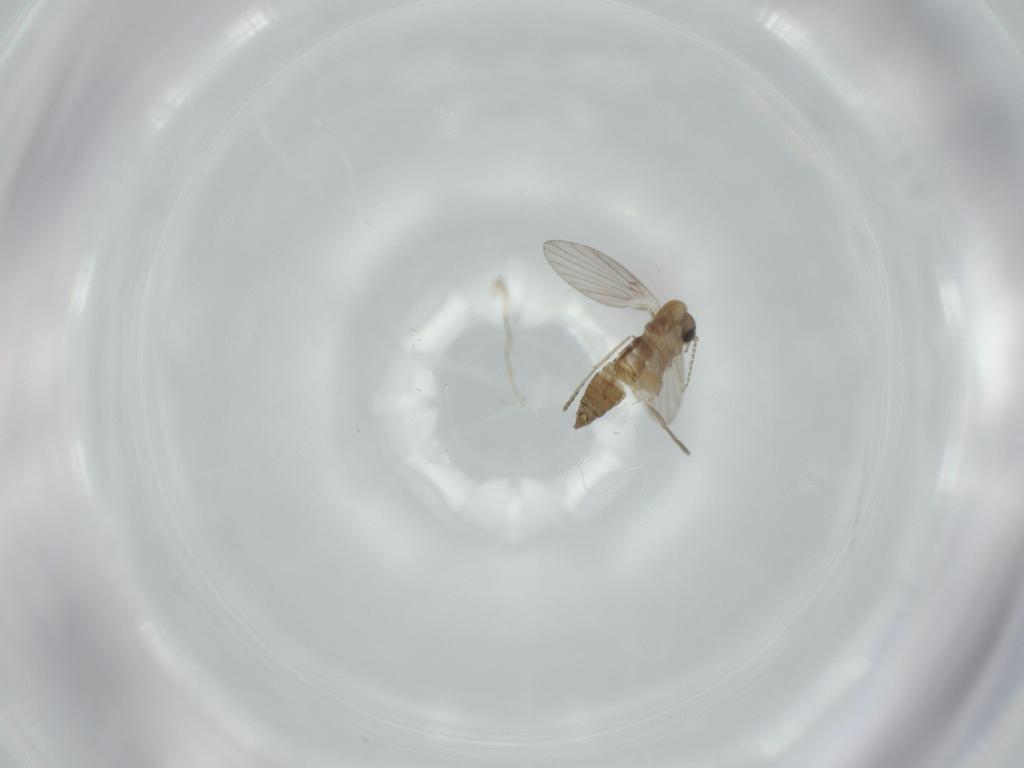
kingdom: Animalia
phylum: Arthropoda
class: Insecta
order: Diptera
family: Psychodidae
